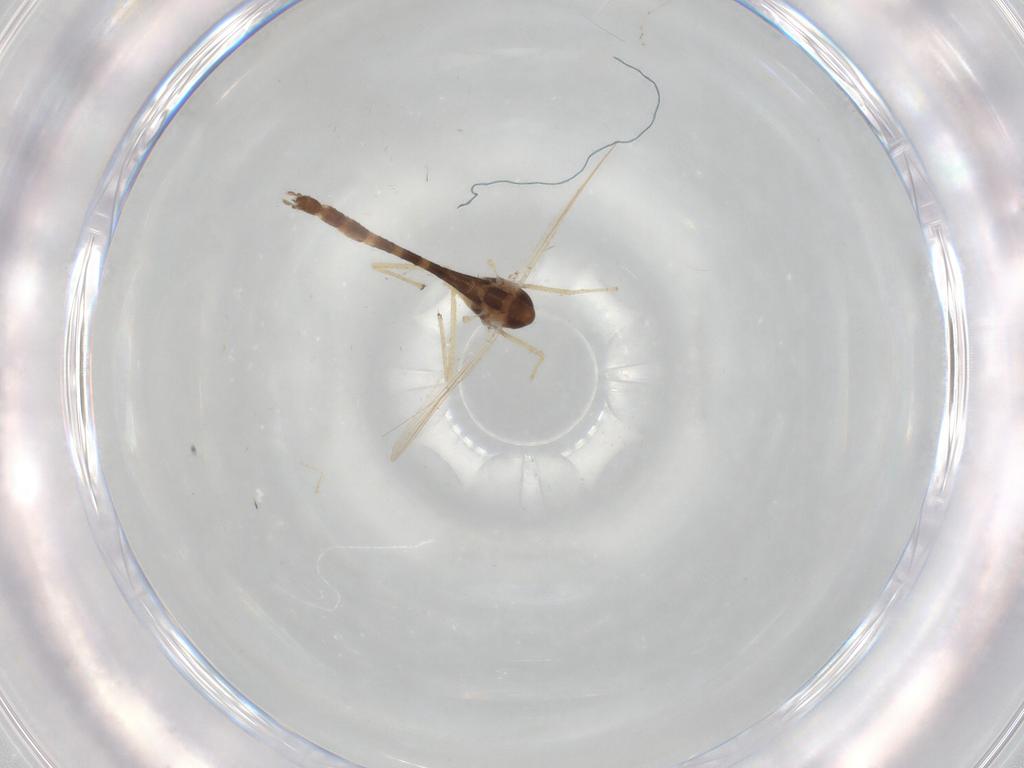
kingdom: Animalia
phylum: Arthropoda
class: Insecta
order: Diptera
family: Chironomidae
